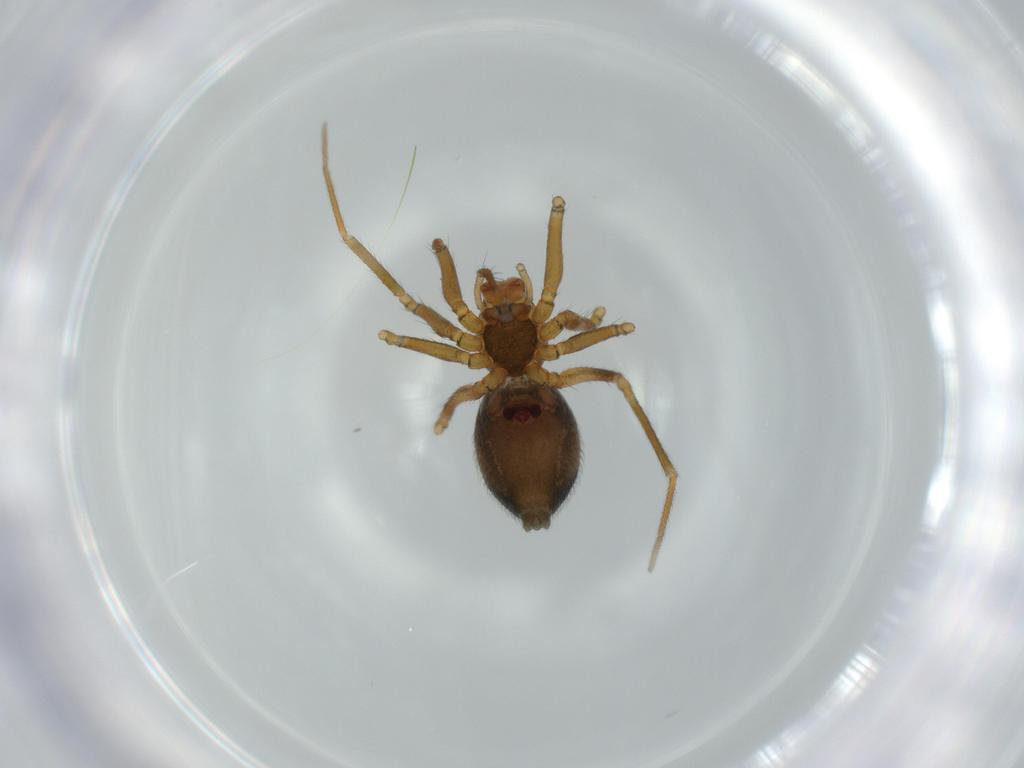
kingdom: Animalia
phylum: Arthropoda
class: Arachnida
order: Araneae
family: Linyphiidae
